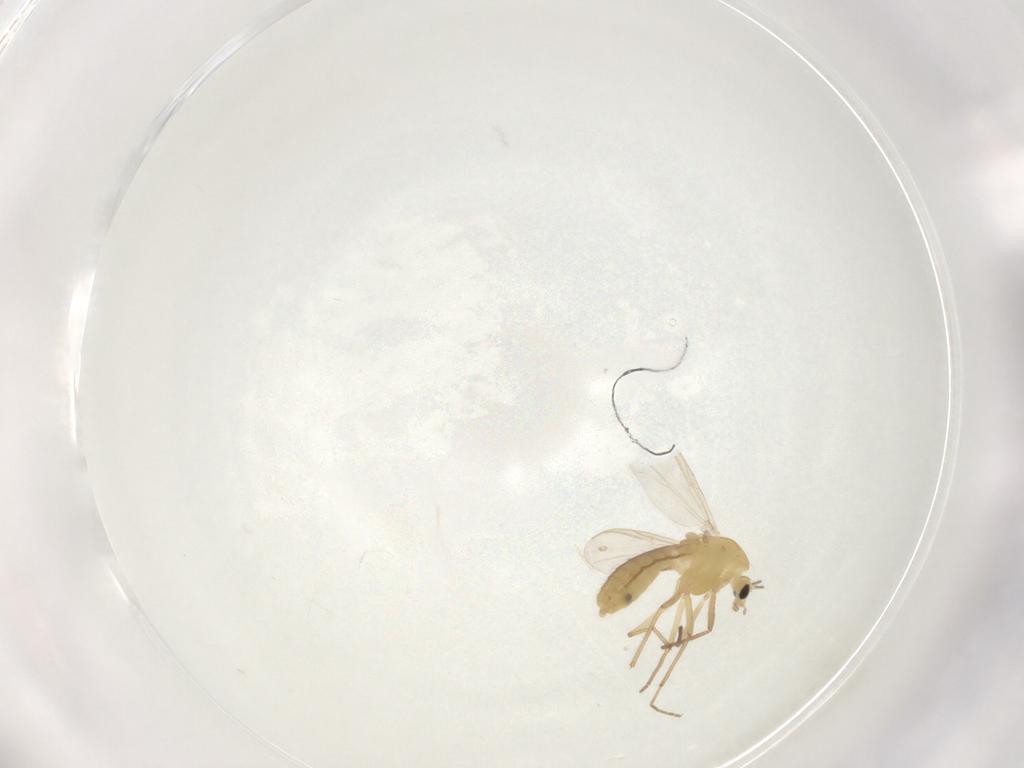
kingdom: Animalia
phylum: Arthropoda
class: Insecta
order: Diptera
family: Chironomidae
